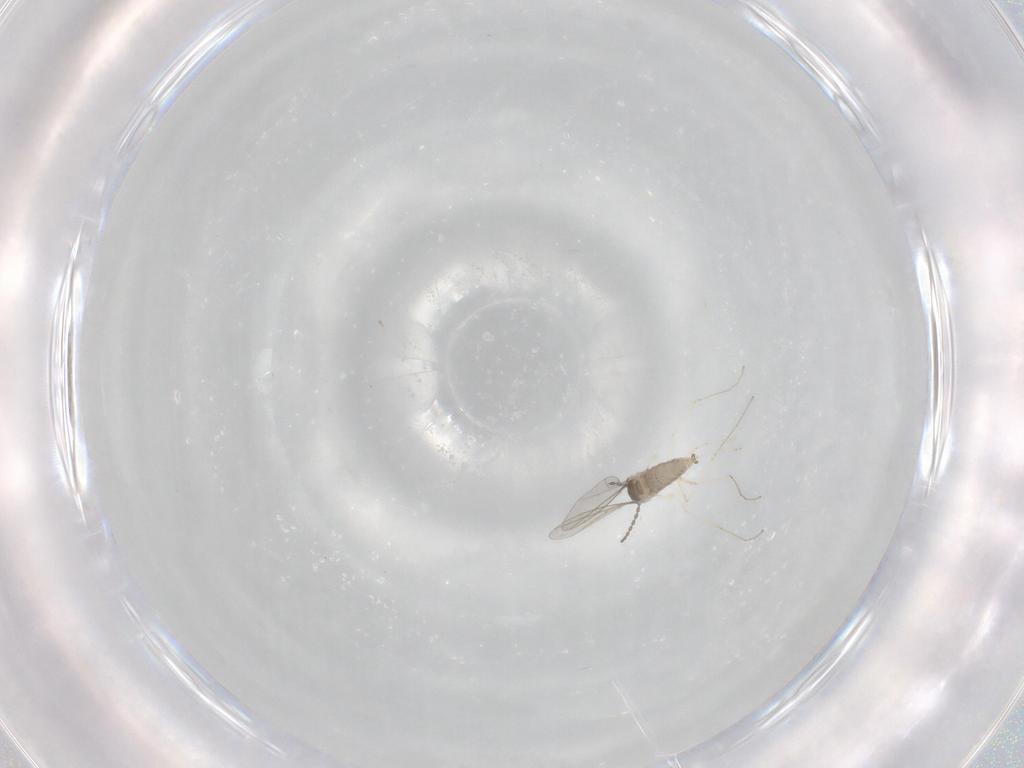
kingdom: Animalia
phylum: Arthropoda
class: Insecta
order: Diptera
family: Cecidomyiidae
